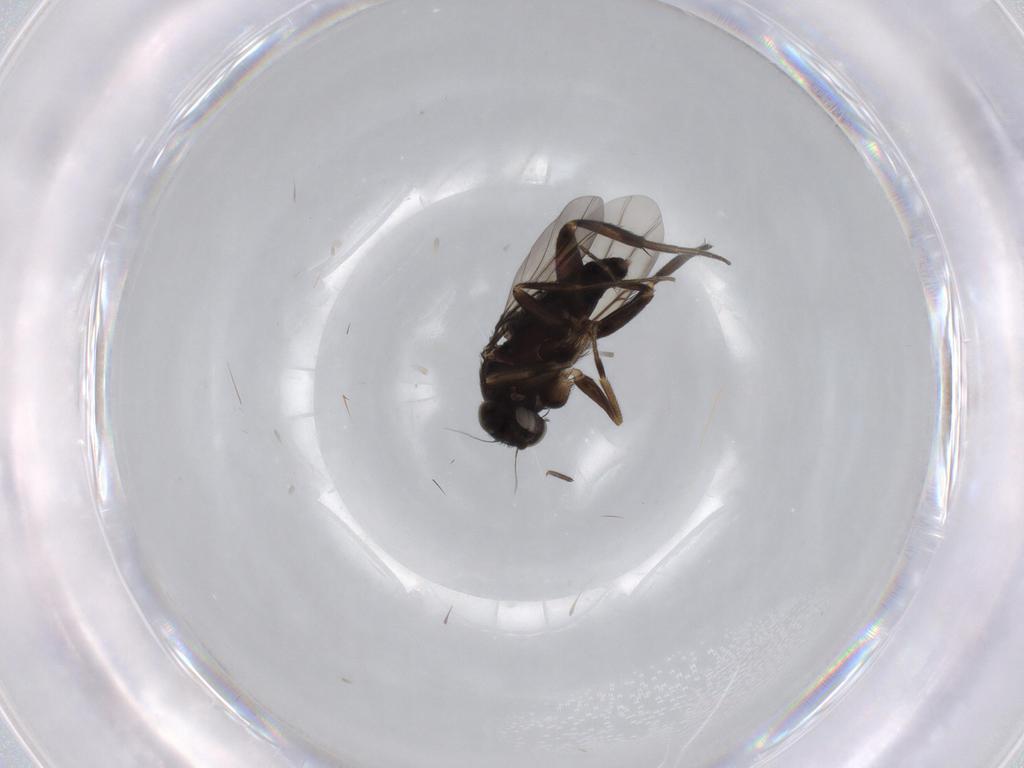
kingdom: Animalia
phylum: Arthropoda
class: Insecta
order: Diptera
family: Phoridae
